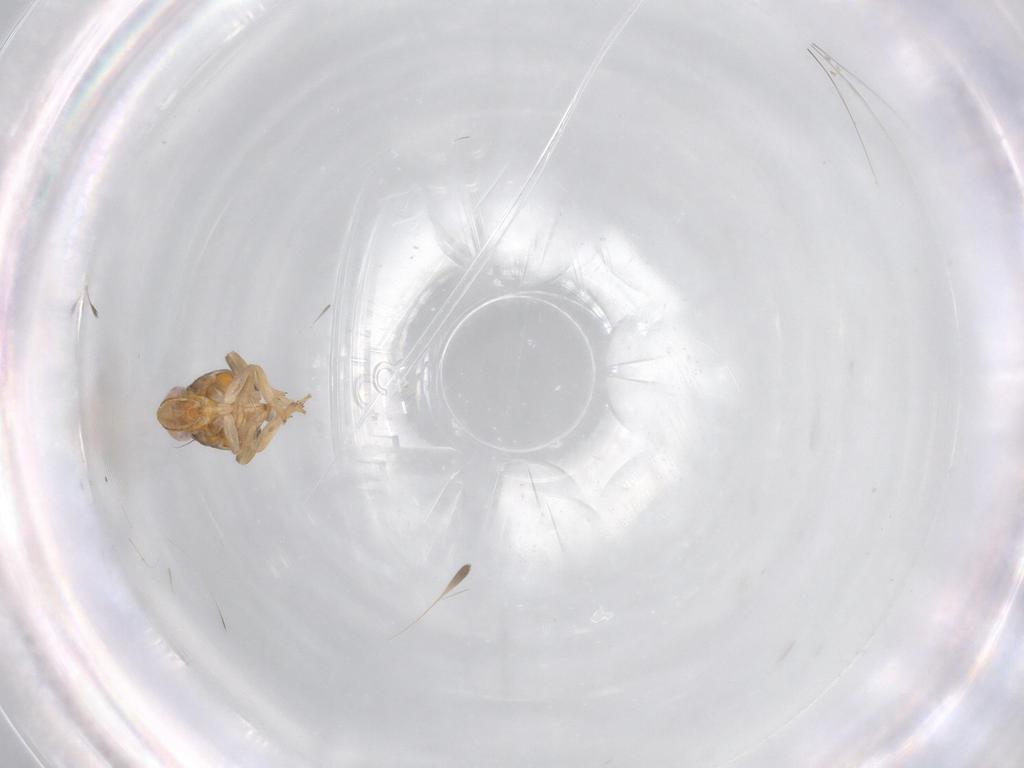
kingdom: Animalia
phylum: Arthropoda
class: Insecta
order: Hemiptera
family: Issidae
